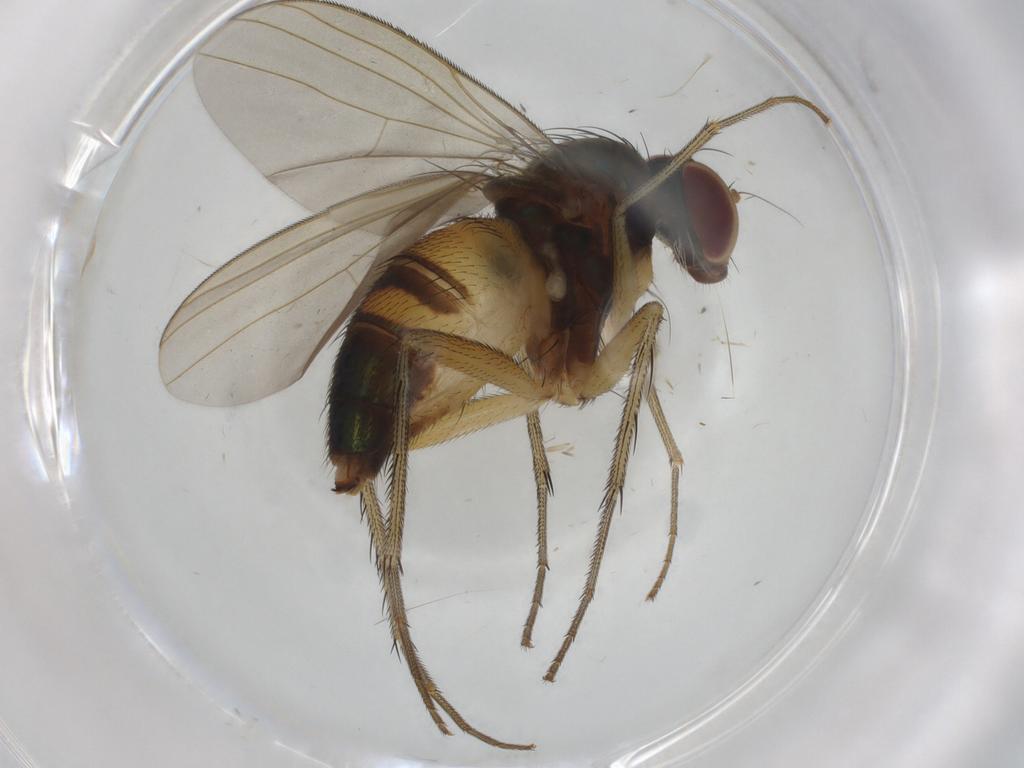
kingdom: Animalia
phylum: Arthropoda
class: Insecta
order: Diptera
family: Dolichopodidae
